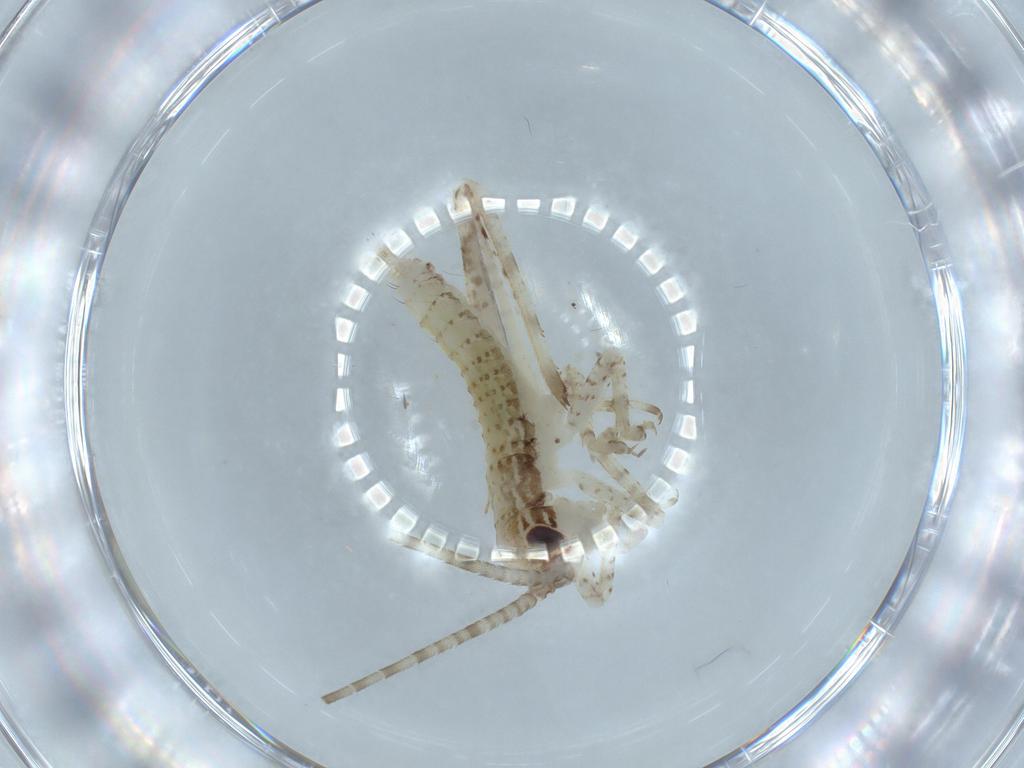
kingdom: Animalia
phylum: Arthropoda
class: Insecta
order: Orthoptera
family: Gryllidae
